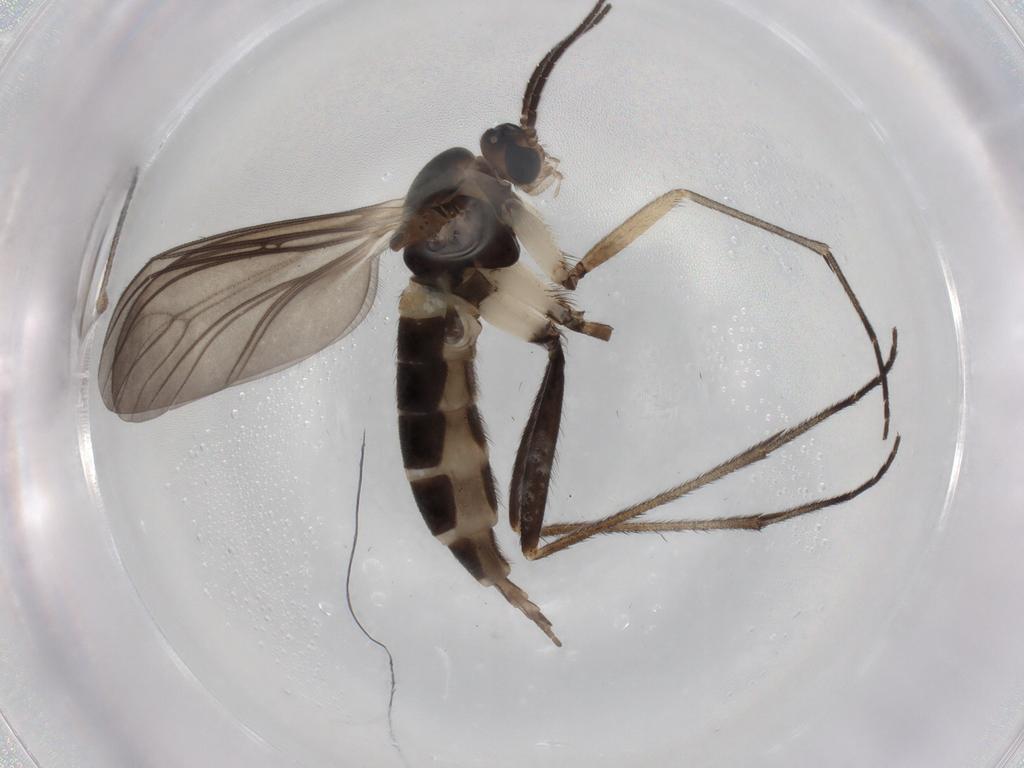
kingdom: Animalia
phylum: Arthropoda
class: Insecta
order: Diptera
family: Sciaridae
